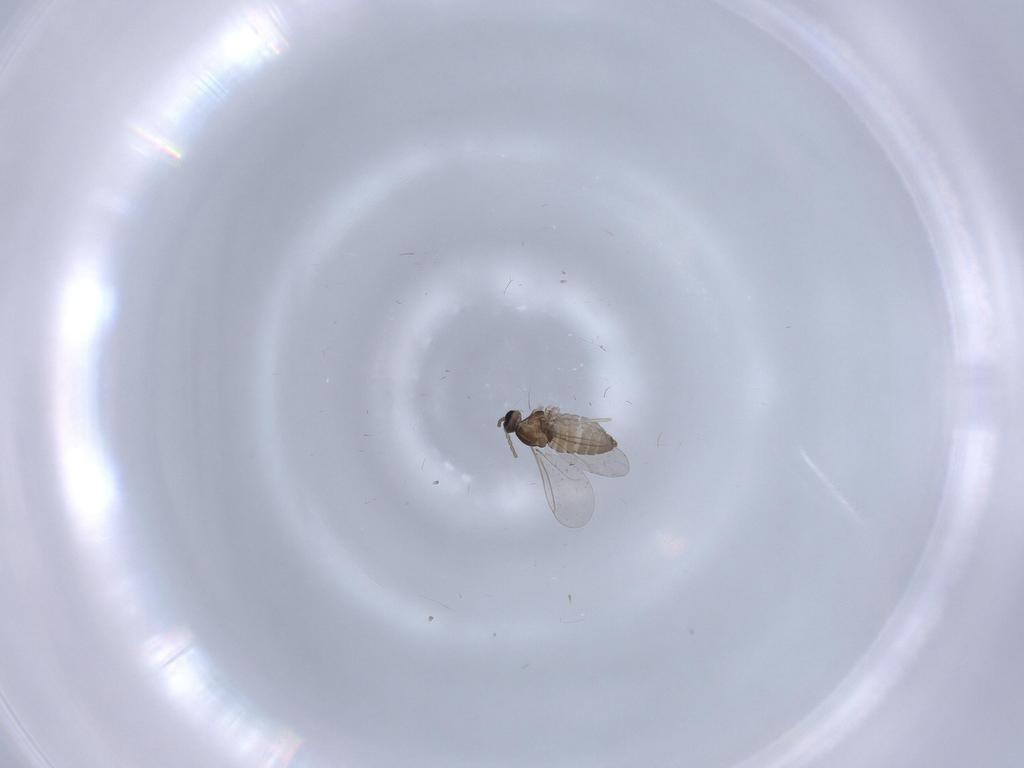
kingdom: Animalia
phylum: Arthropoda
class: Insecta
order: Diptera
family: Cecidomyiidae
